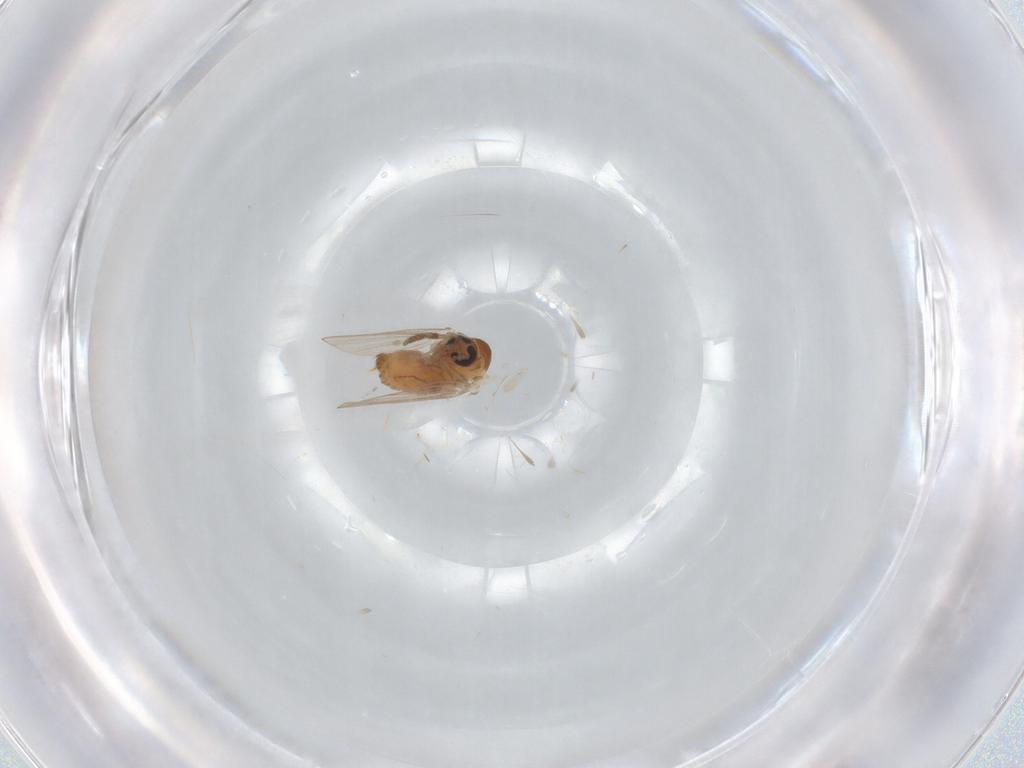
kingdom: Animalia
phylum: Arthropoda
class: Insecta
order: Diptera
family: Psychodidae
